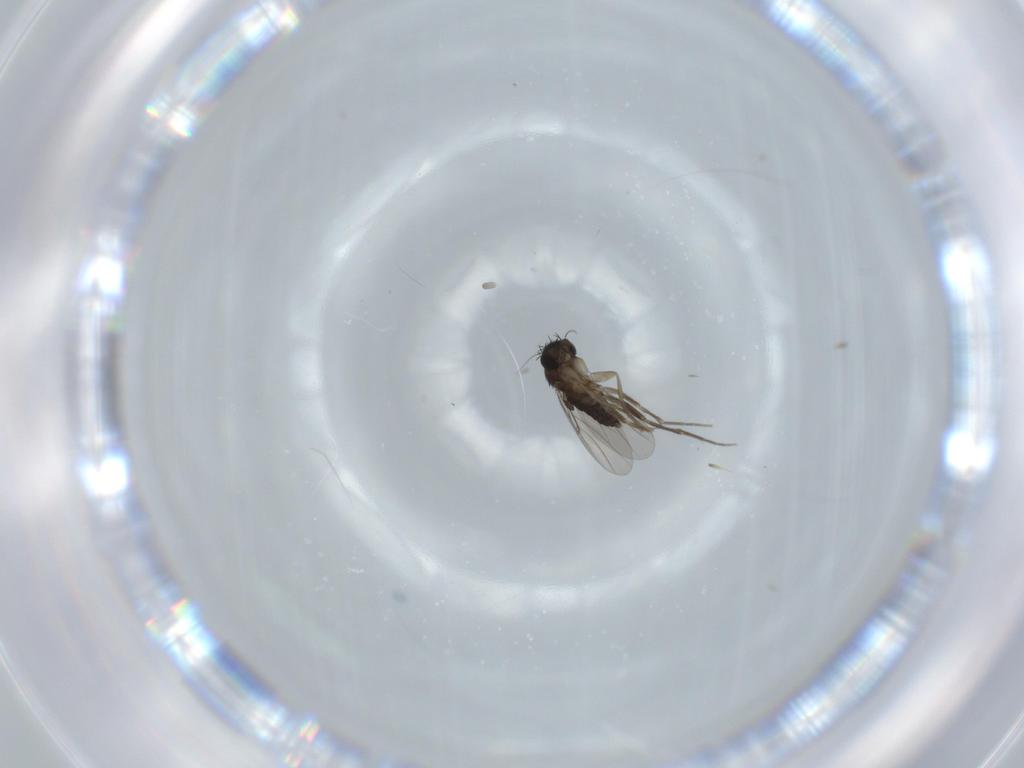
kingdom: Animalia
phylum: Arthropoda
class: Insecta
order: Diptera
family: Phoridae
